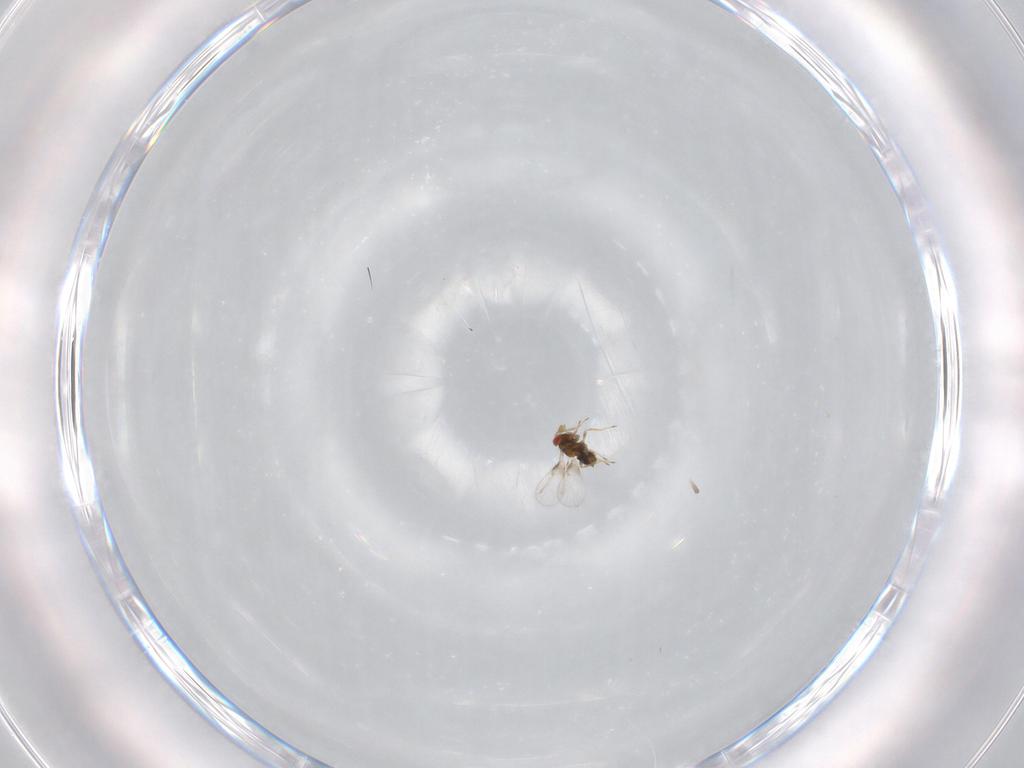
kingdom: Animalia
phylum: Arthropoda
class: Insecta
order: Hymenoptera
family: Trichogrammatidae
